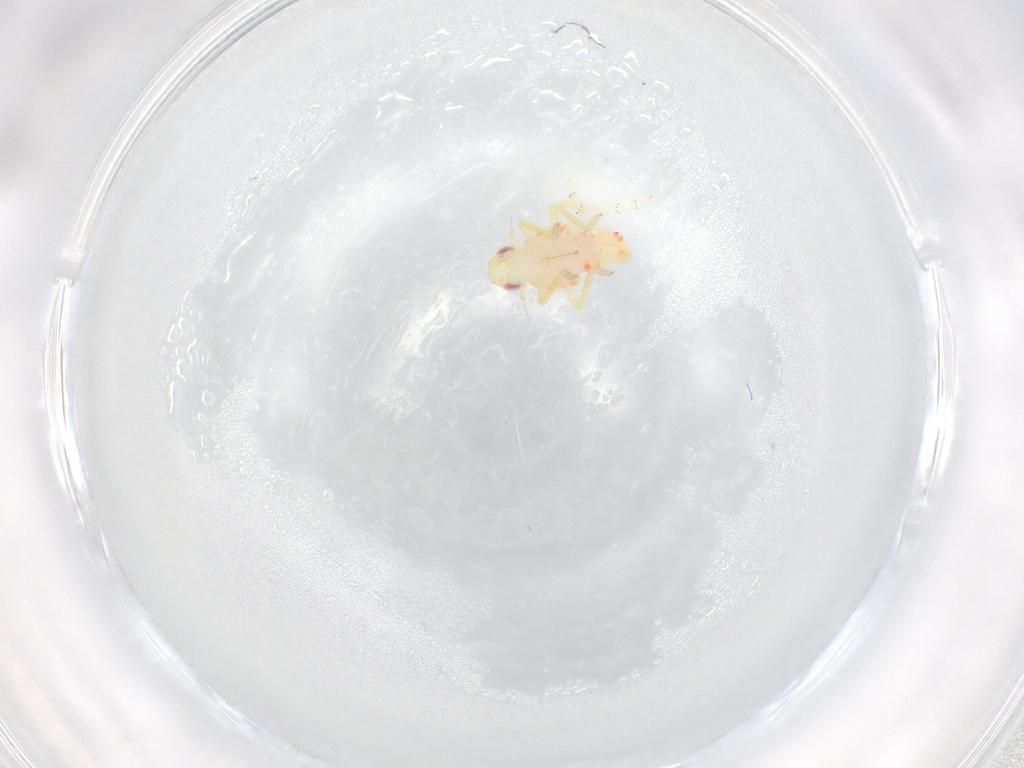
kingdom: Animalia
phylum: Arthropoda
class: Insecta
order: Hemiptera
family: Tropiduchidae
